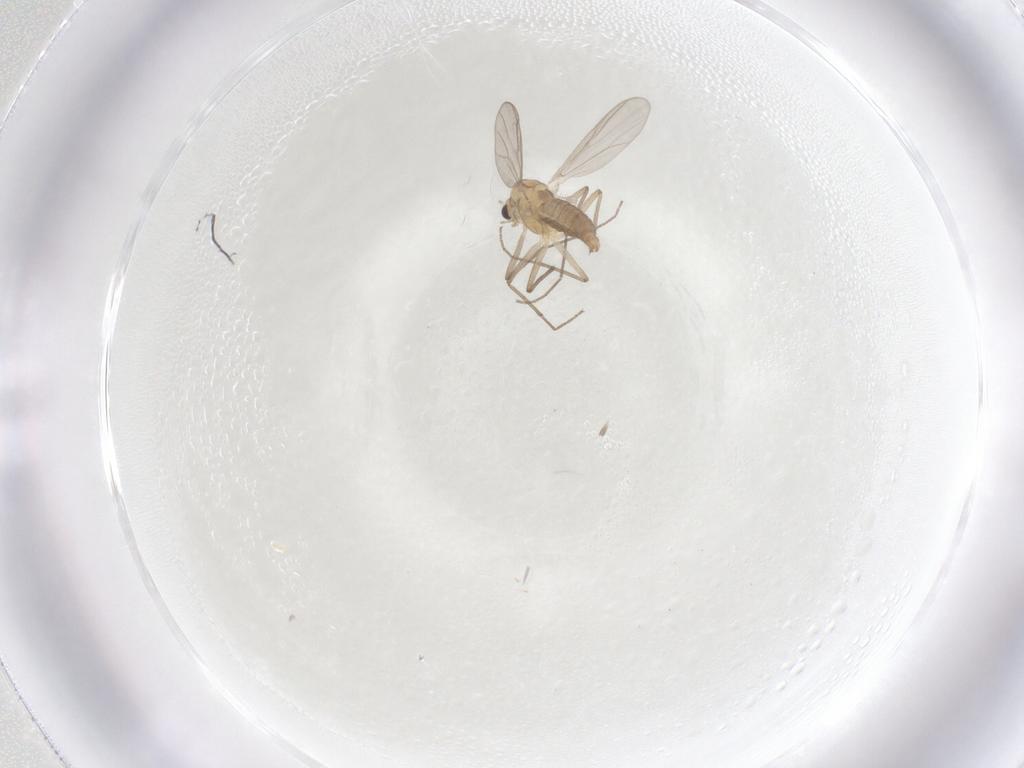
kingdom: Animalia
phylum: Arthropoda
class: Insecta
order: Diptera
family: Chironomidae
